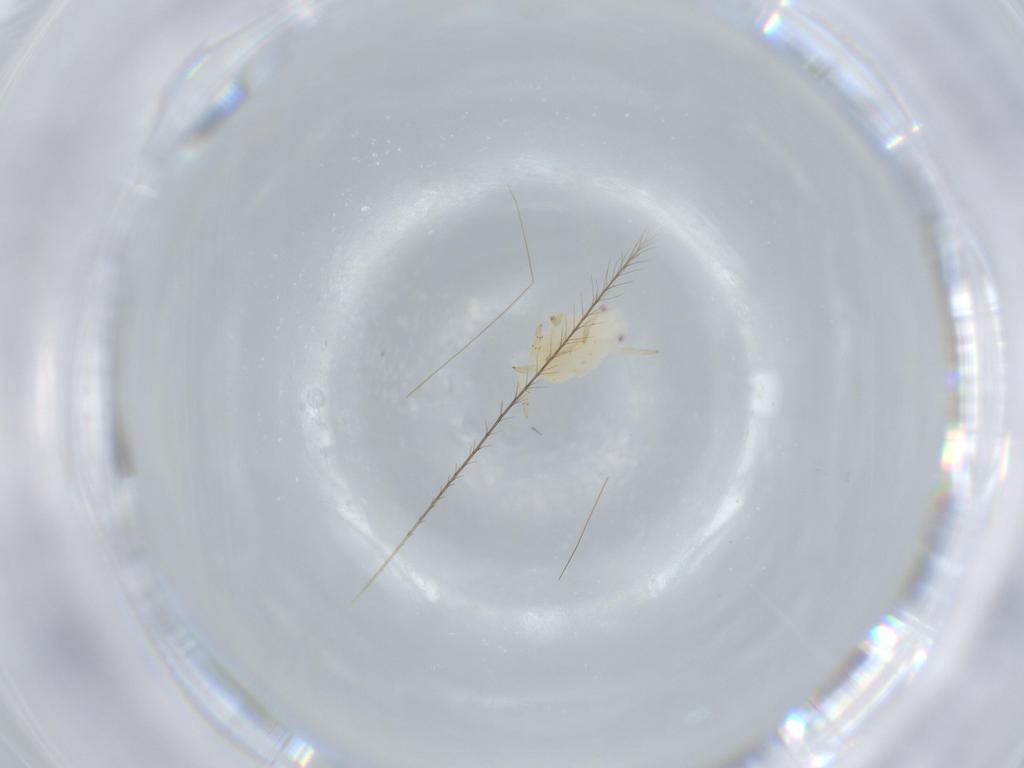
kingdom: Animalia
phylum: Arthropoda
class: Insecta
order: Hemiptera
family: Flatidae
